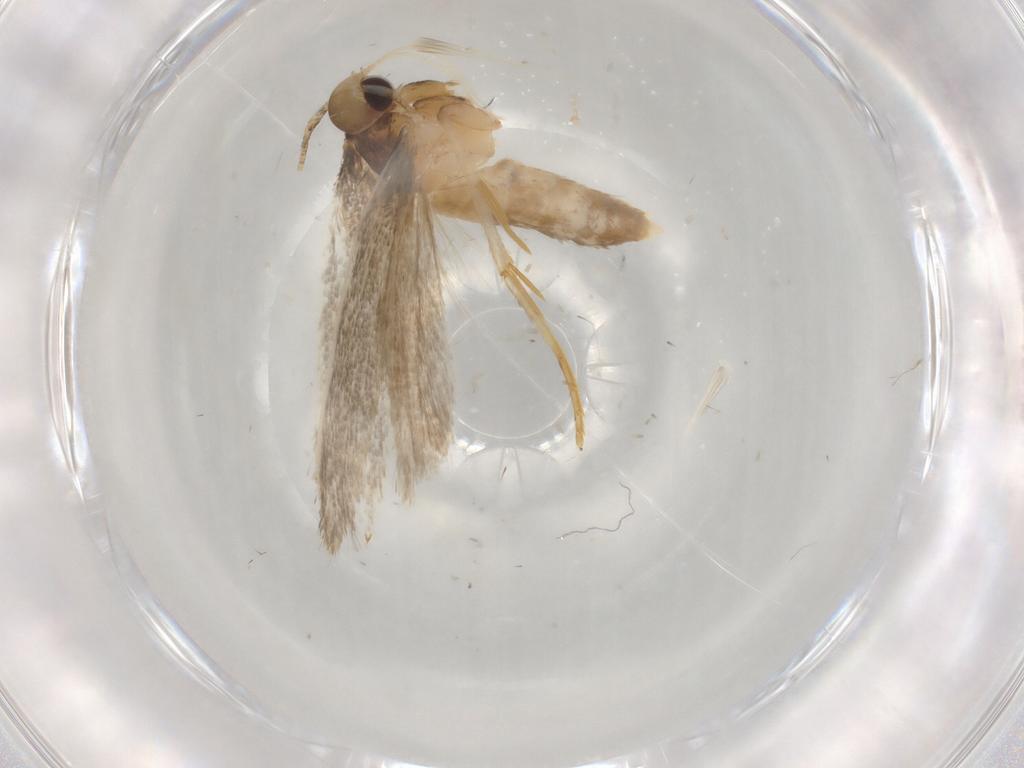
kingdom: Animalia
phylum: Arthropoda
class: Insecta
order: Lepidoptera
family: Autostichidae
